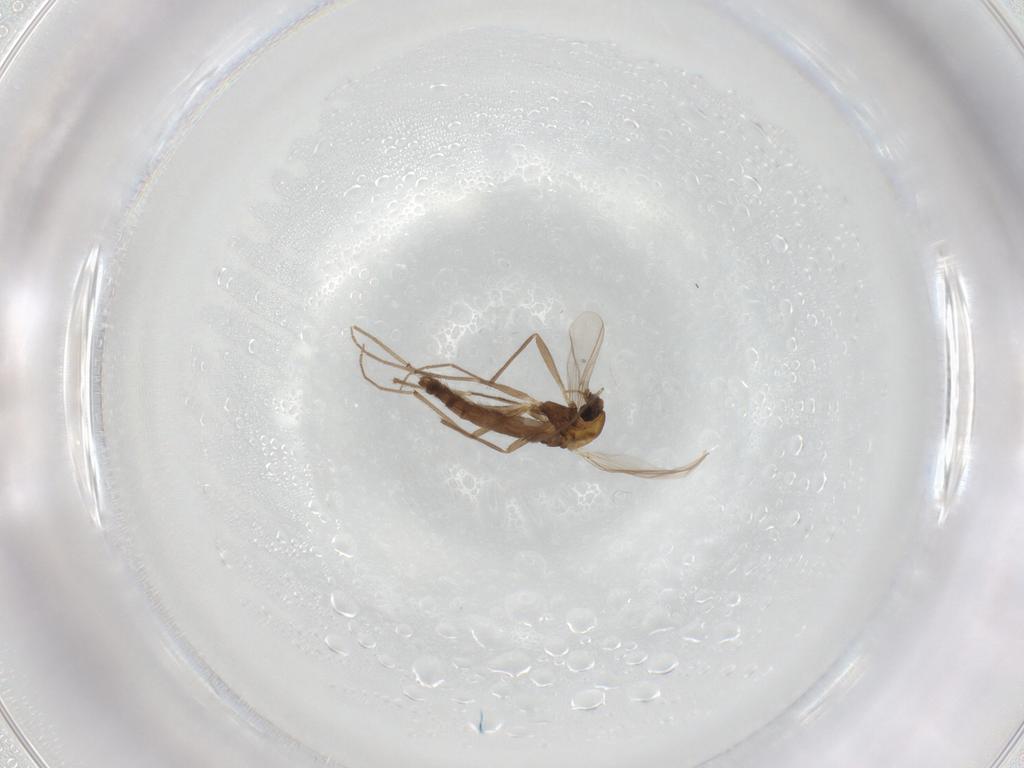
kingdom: Animalia
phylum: Arthropoda
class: Insecta
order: Diptera
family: Chironomidae
